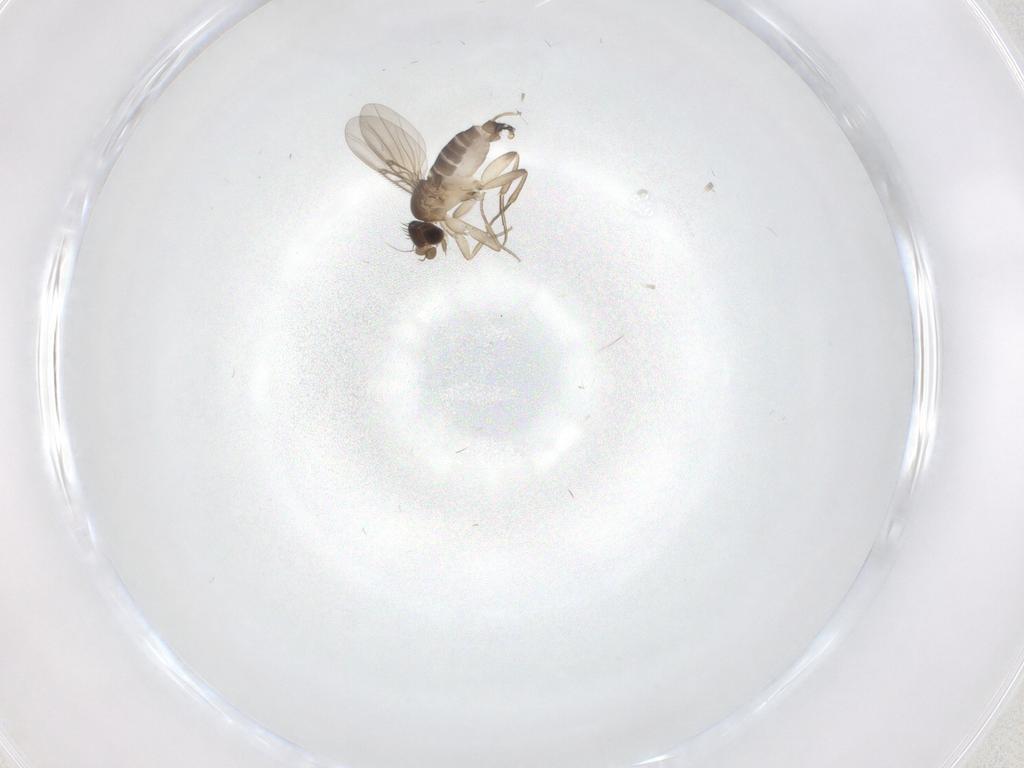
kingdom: Animalia
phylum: Arthropoda
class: Insecta
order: Diptera
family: Phoridae
